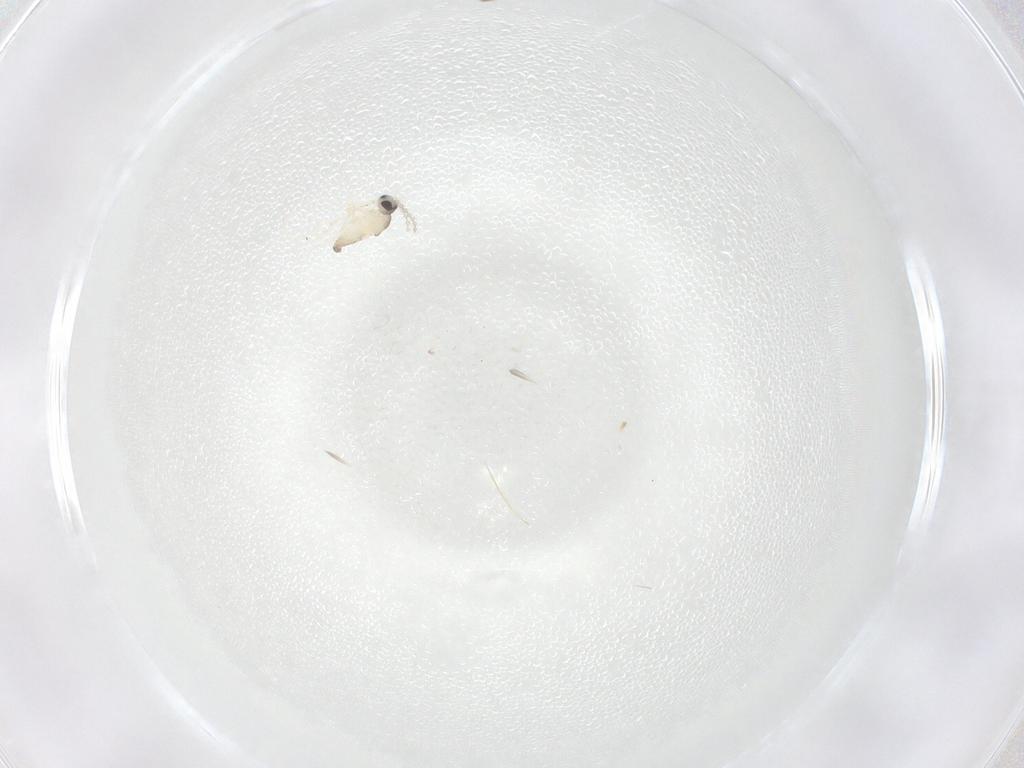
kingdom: Animalia
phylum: Arthropoda
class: Insecta
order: Diptera
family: Cecidomyiidae
